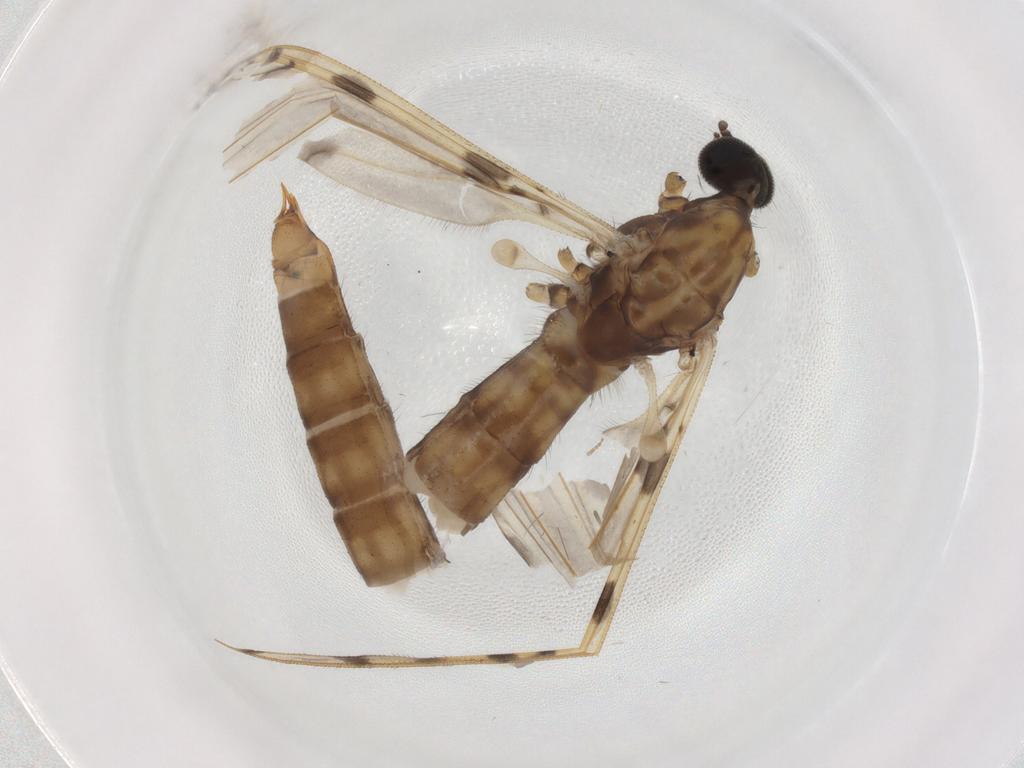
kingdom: Animalia
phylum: Arthropoda
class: Insecta
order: Diptera
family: Limoniidae
